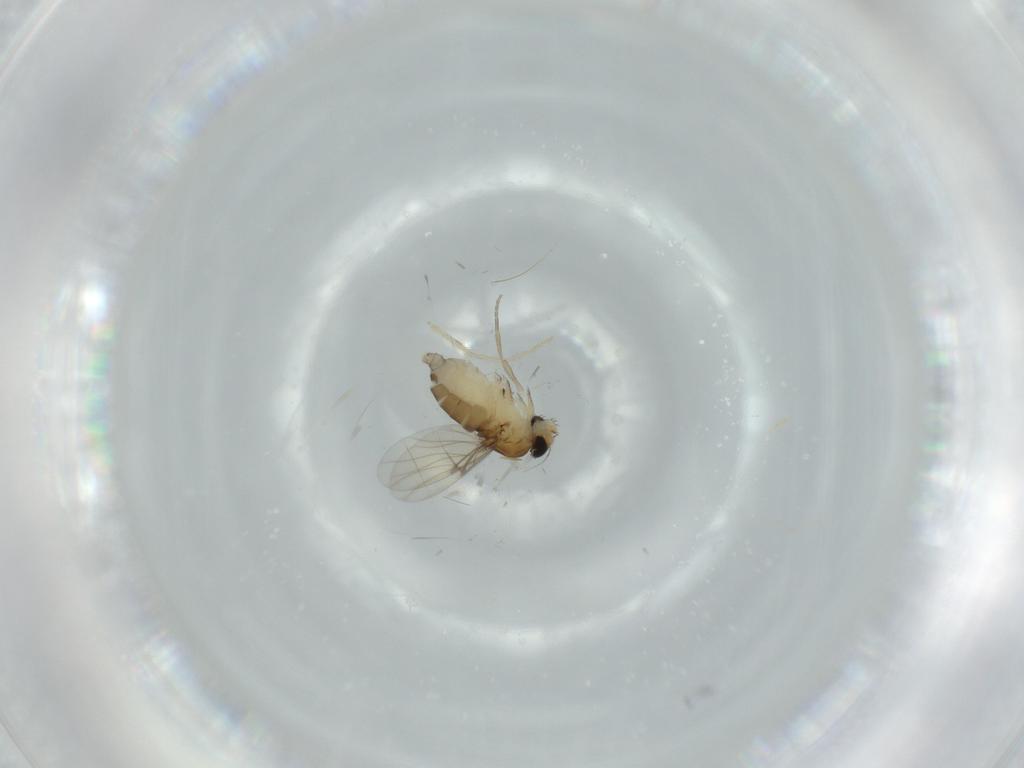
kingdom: Animalia
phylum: Arthropoda
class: Insecta
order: Diptera
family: Phoridae
